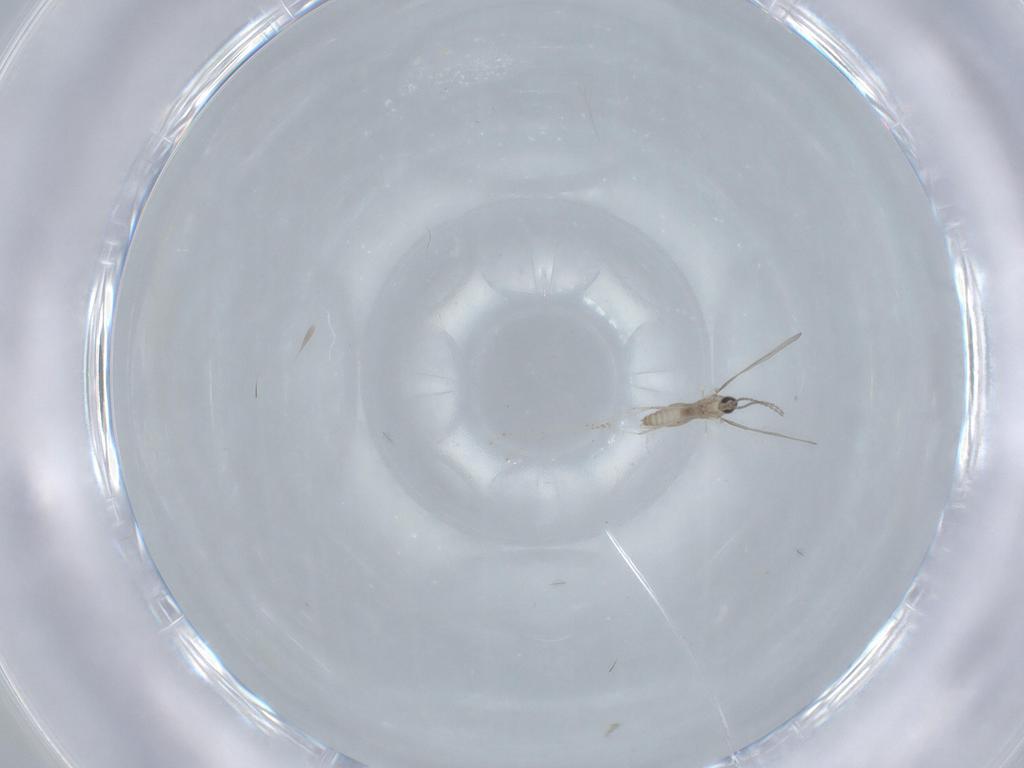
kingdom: Animalia
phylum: Arthropoda
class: Insecta
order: Diptera
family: Cecidomyiidae
